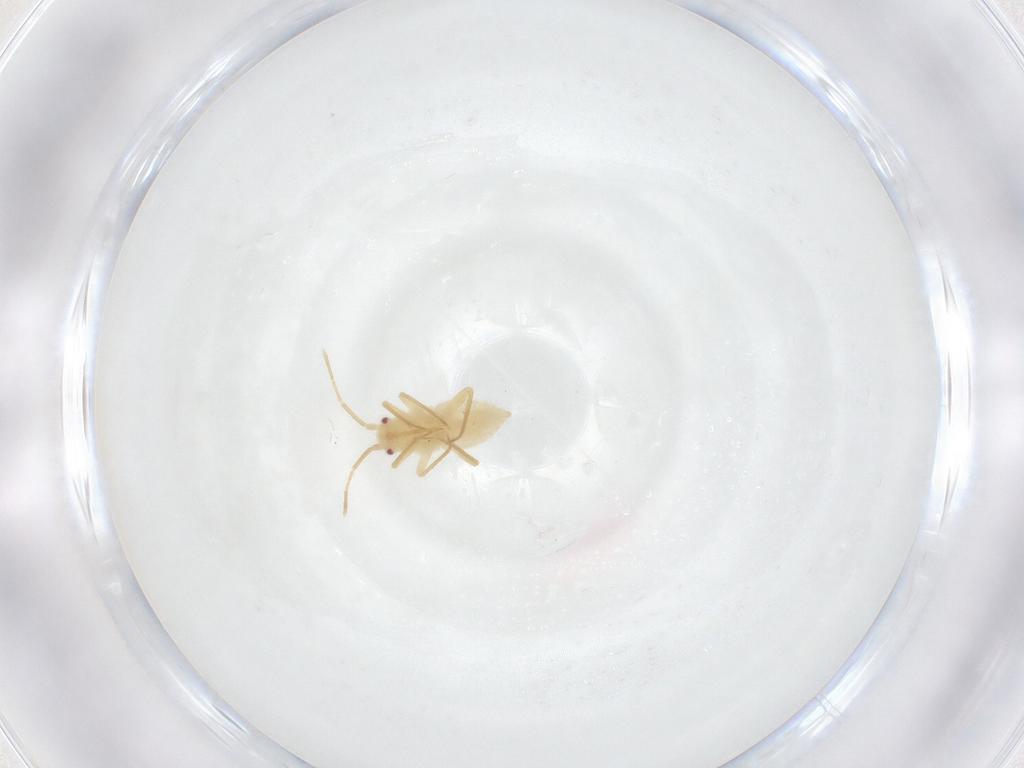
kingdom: Animalia
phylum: Arthropoda
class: Insecta
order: Hemiptera
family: Miridae
